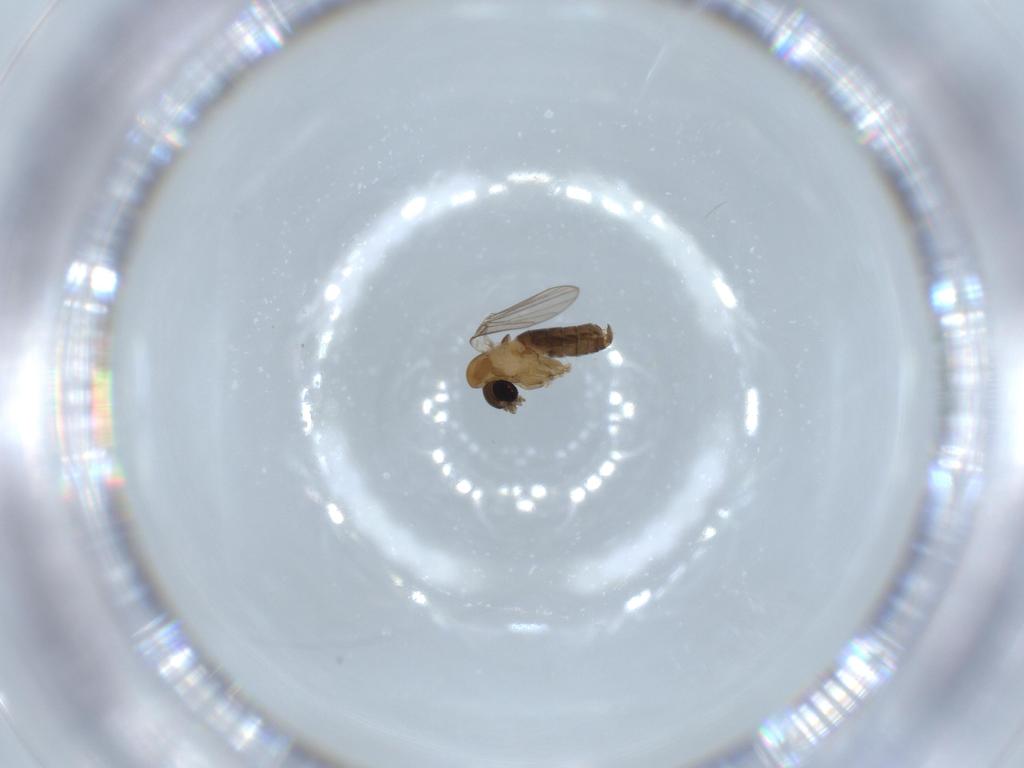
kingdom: Animalia
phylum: Arthropoda
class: Insecta
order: Diptera
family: Psychodidae
